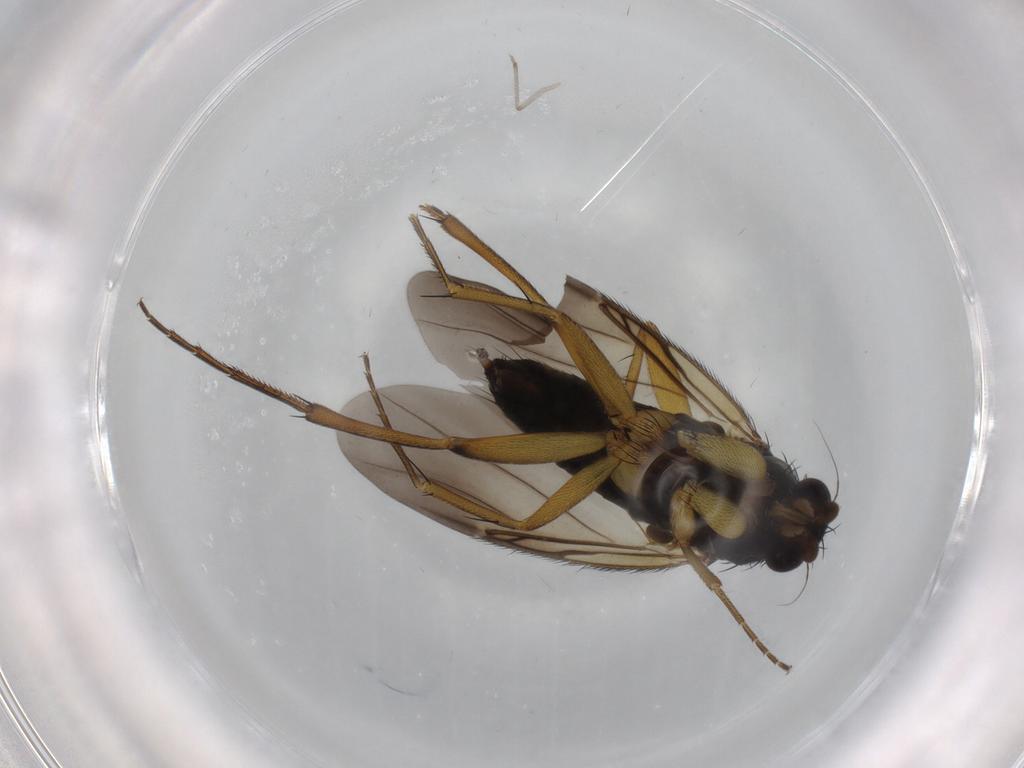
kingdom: Animalia
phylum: Arthropoda
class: Insecta
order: Diptera
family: Phoridae
